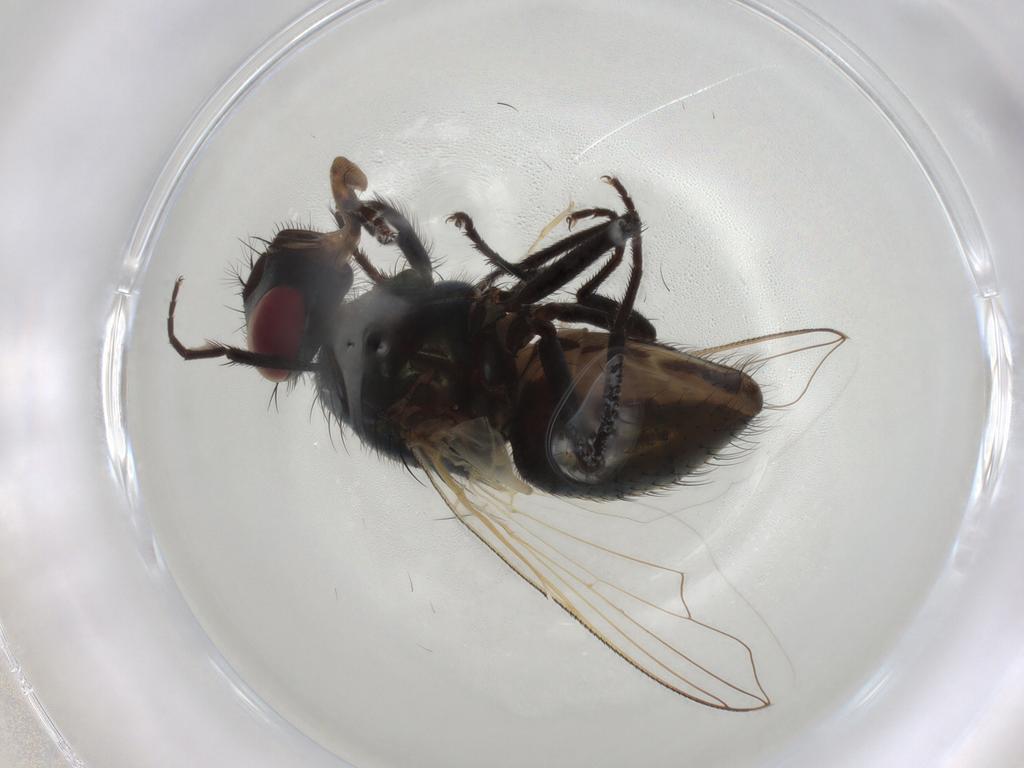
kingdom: Animalia
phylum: Arthropoda
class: Insecta
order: Diptera
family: Muscidae
